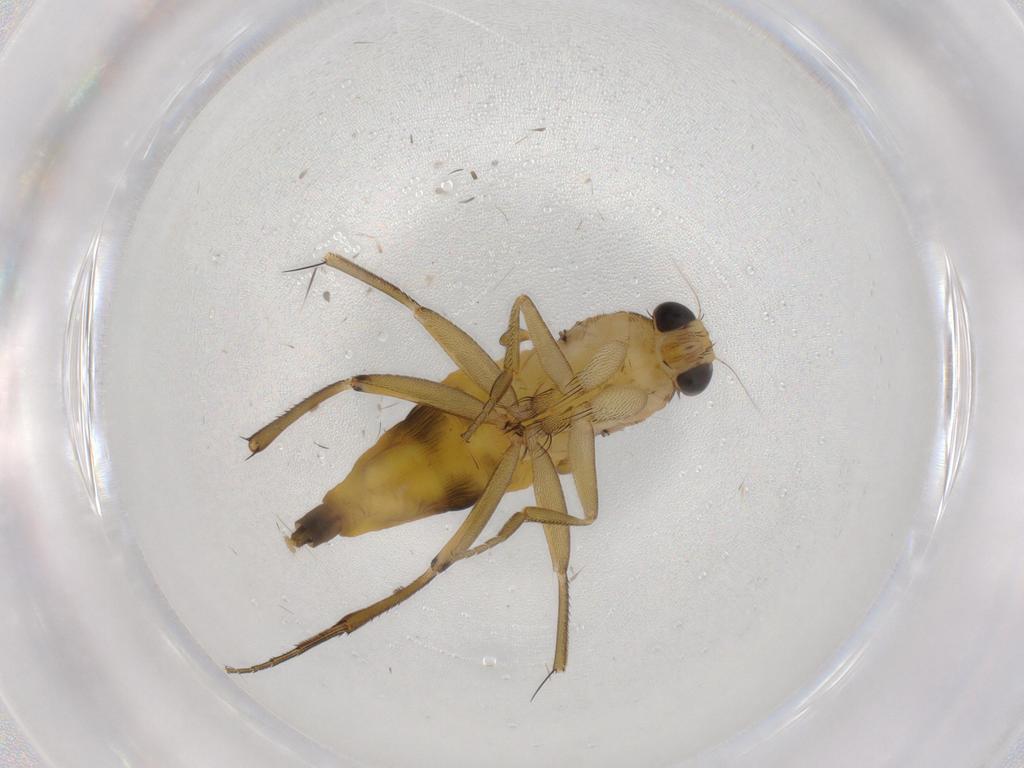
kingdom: Animalia
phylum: Arthropoda
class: Insecta
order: Diptera
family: Phoridae
